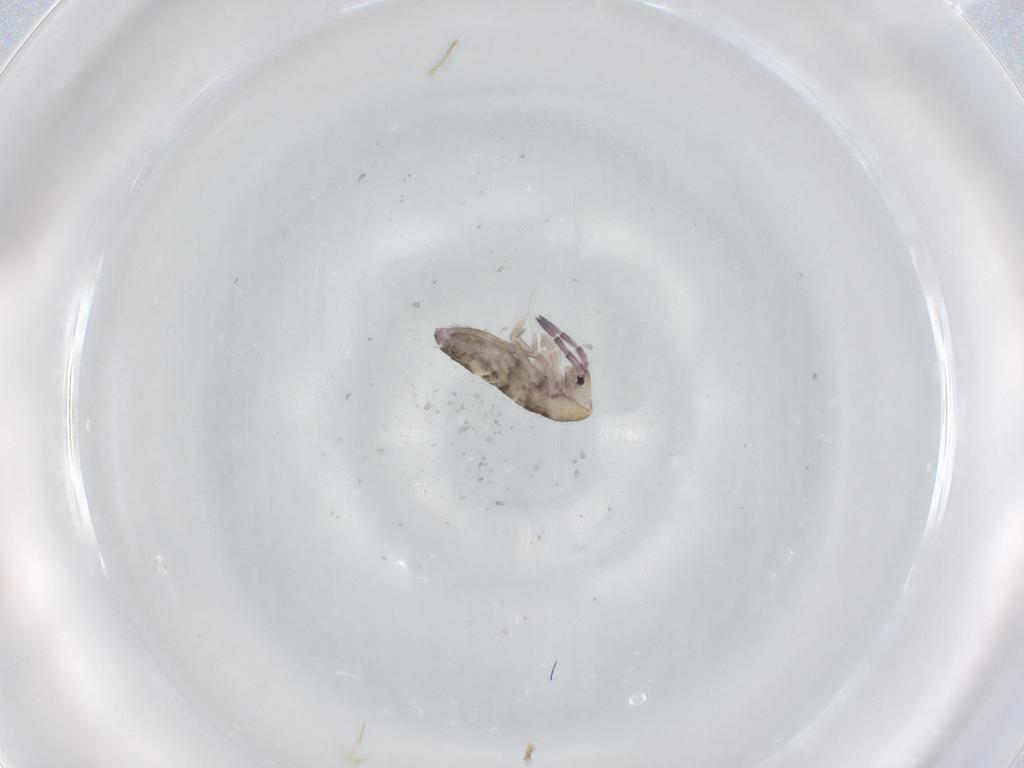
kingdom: Animalia
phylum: Arthropoda
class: Collembola
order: Entomobryomorpha
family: Entomobryidae
